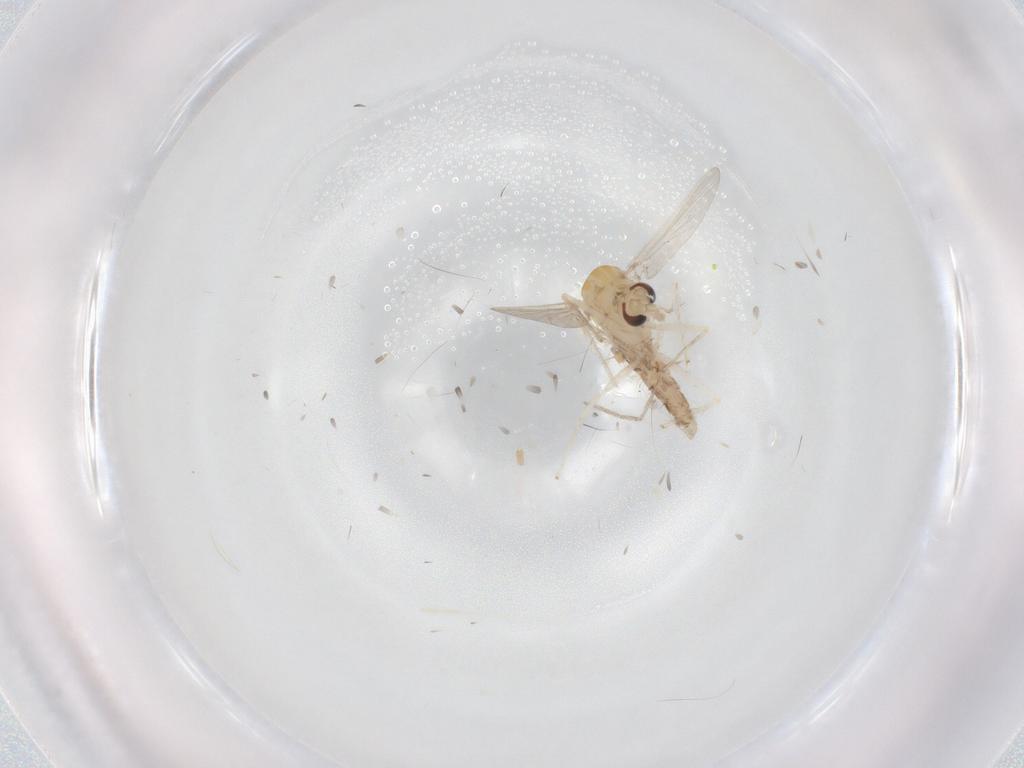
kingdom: Animalia
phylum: Arthropoda
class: Insecta
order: Diptera
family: Chironomidae
